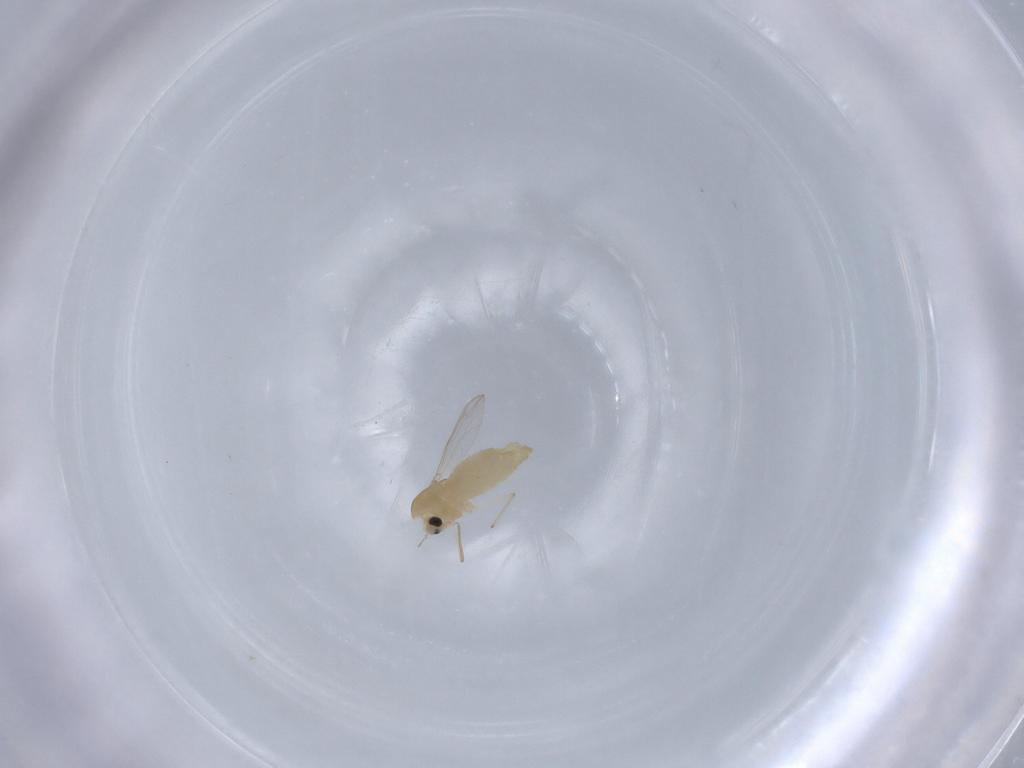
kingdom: Animalia
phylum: Arthropoda
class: Insecta
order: Diptera
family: Chironomidae
